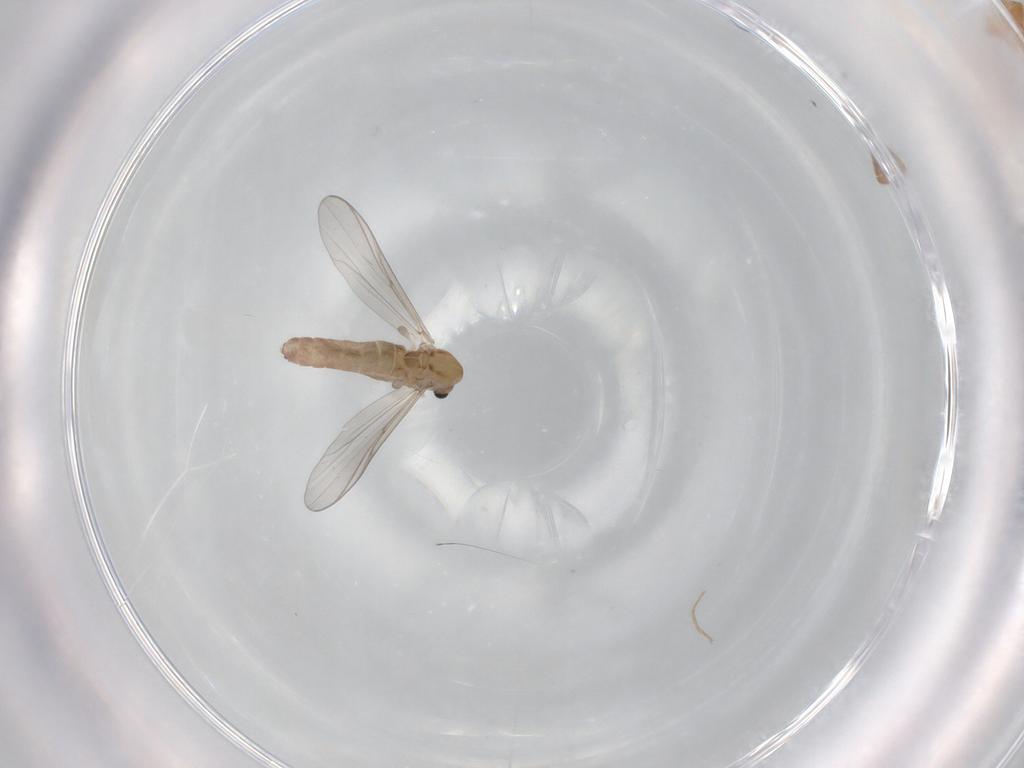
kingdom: Animalia
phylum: Arthropoda
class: Insecta
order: Diptera
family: Chironomidae
